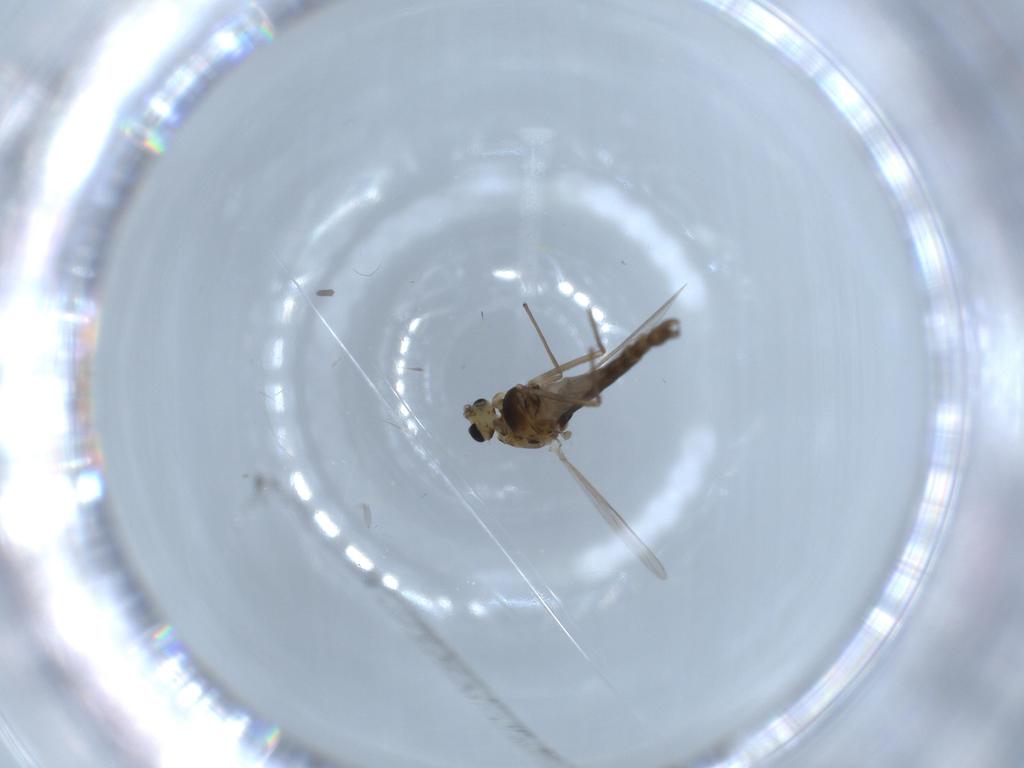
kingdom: Animalia
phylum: Arthropoda
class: Insecta
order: Diptera
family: Chironomidae
